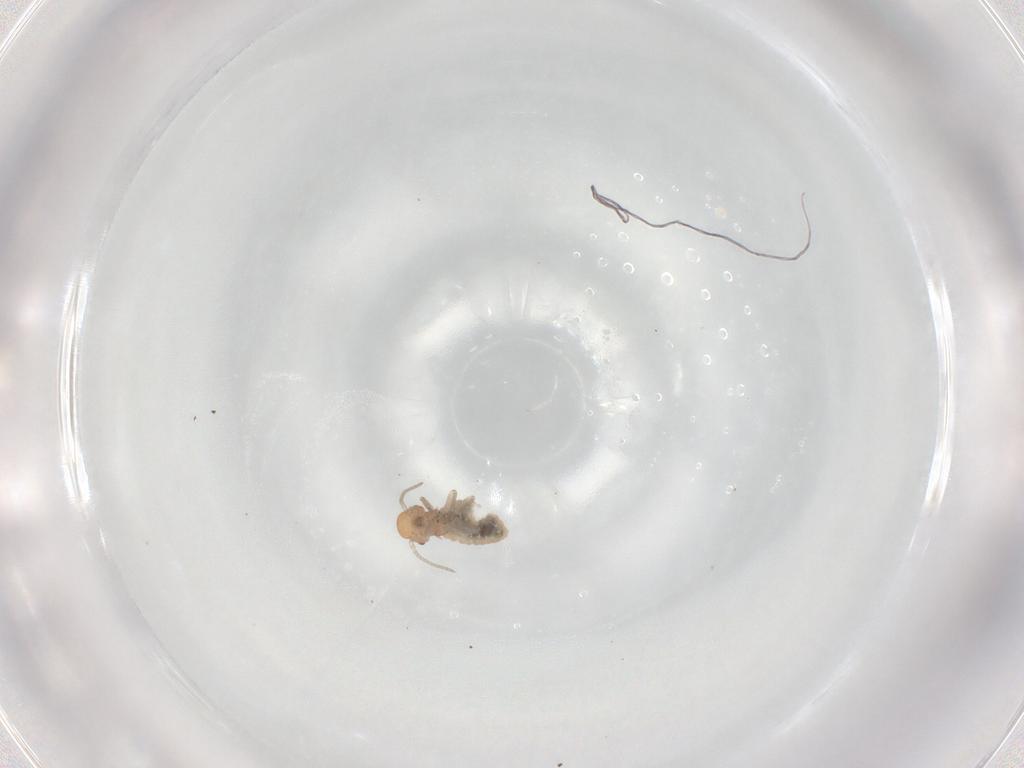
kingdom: Animalia
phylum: Arthropoda
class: Insecta
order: Psocodea
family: Caeciliusidae
